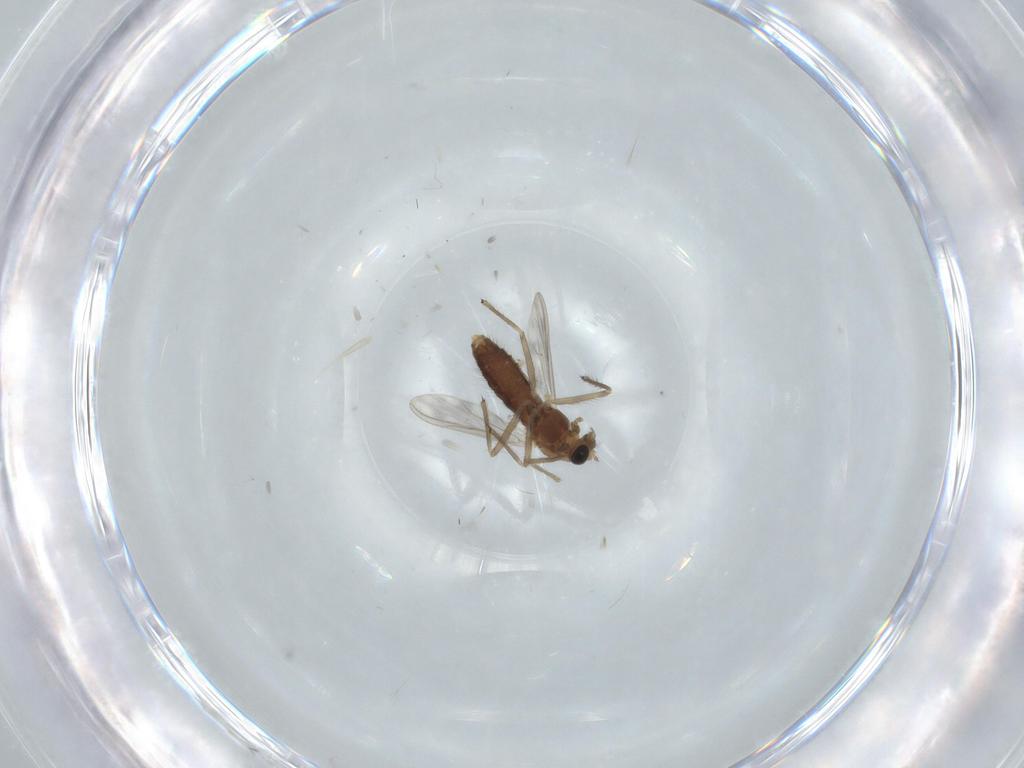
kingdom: Animalia
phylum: Arthropoda
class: Insecta
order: Diptera
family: Chironomidae
